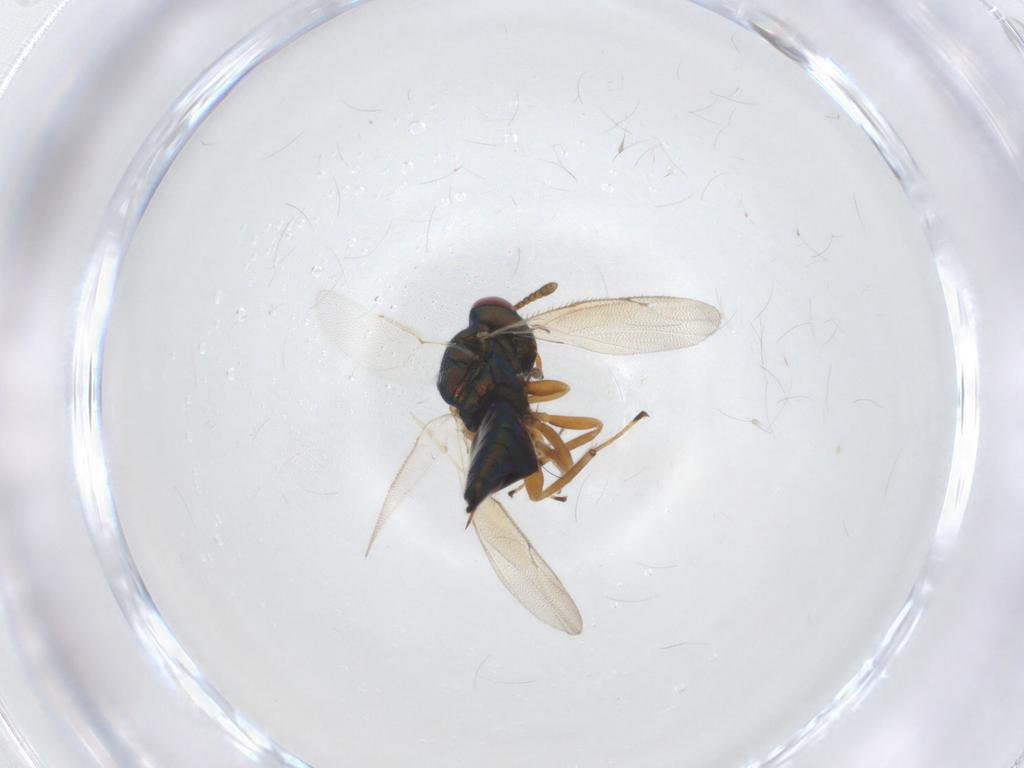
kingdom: Animalia
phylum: Arthropoda
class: Insecta
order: Hymenoptera
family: Pteromalidae
